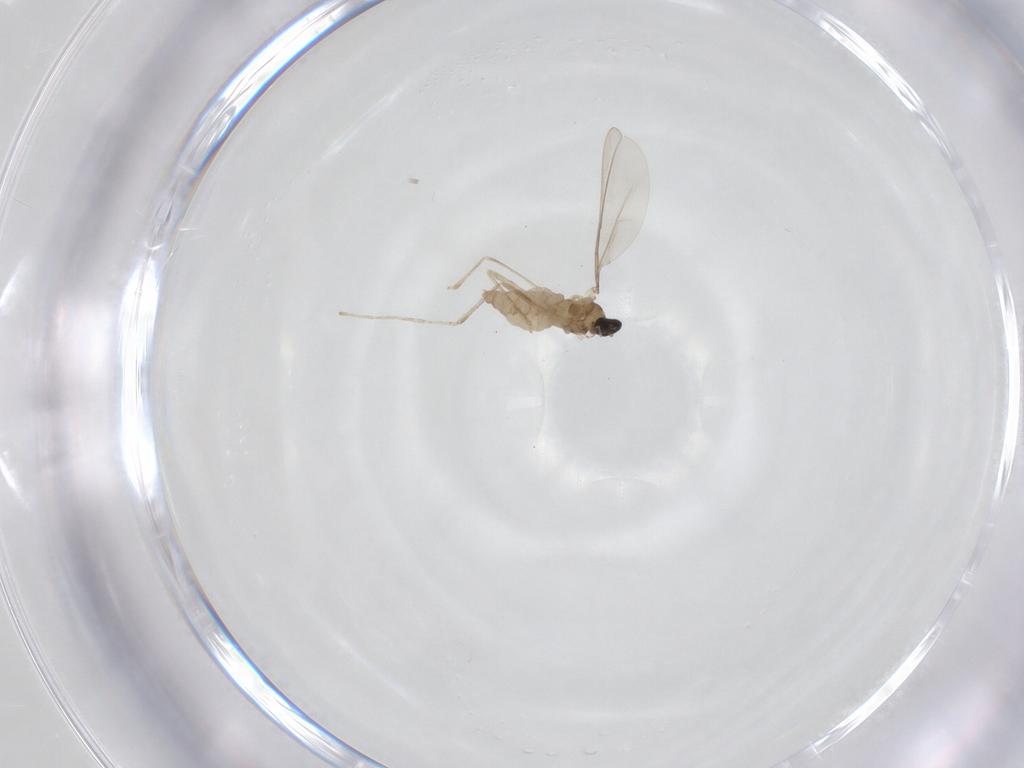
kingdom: Animalia
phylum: Arthropoda
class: Insecta
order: Diptera
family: Cecidomyiidae
